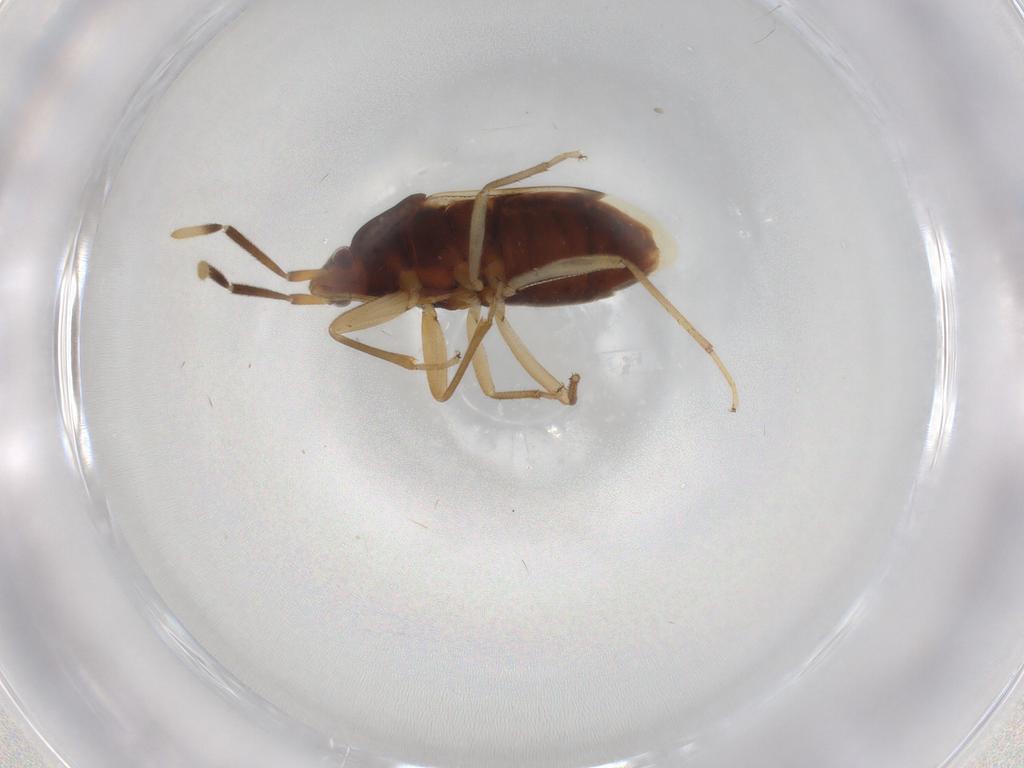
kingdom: Animalia
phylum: Arthropoda
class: Insecta
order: Hemiptera
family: Rhyparochromidae
